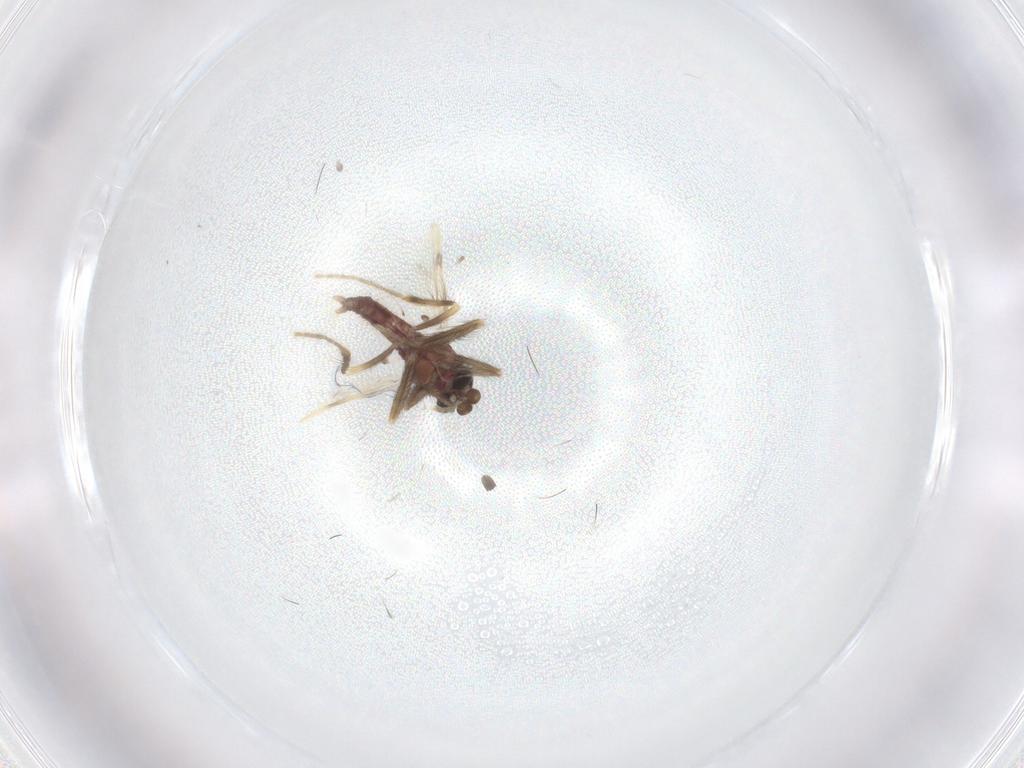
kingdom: Animalia
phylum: Arthropoda
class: Insecta
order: Diptera
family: Corethrellidae
